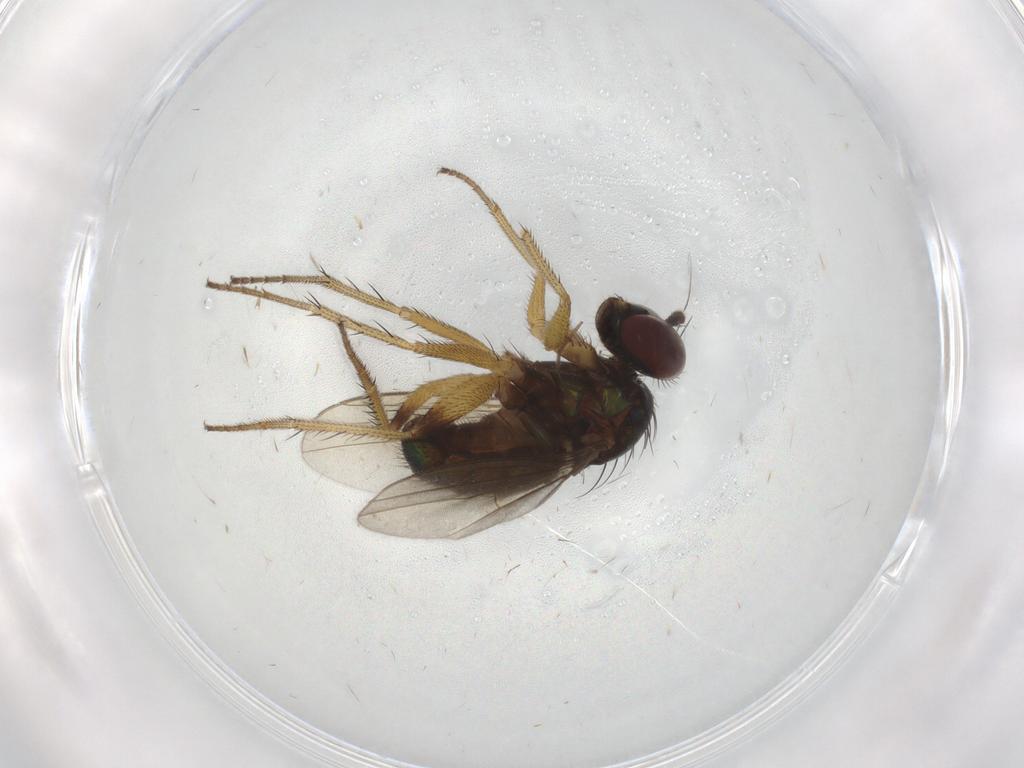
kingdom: Animalia
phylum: Arthropoda
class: Insecta
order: Diptera
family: Dolichopodidae
